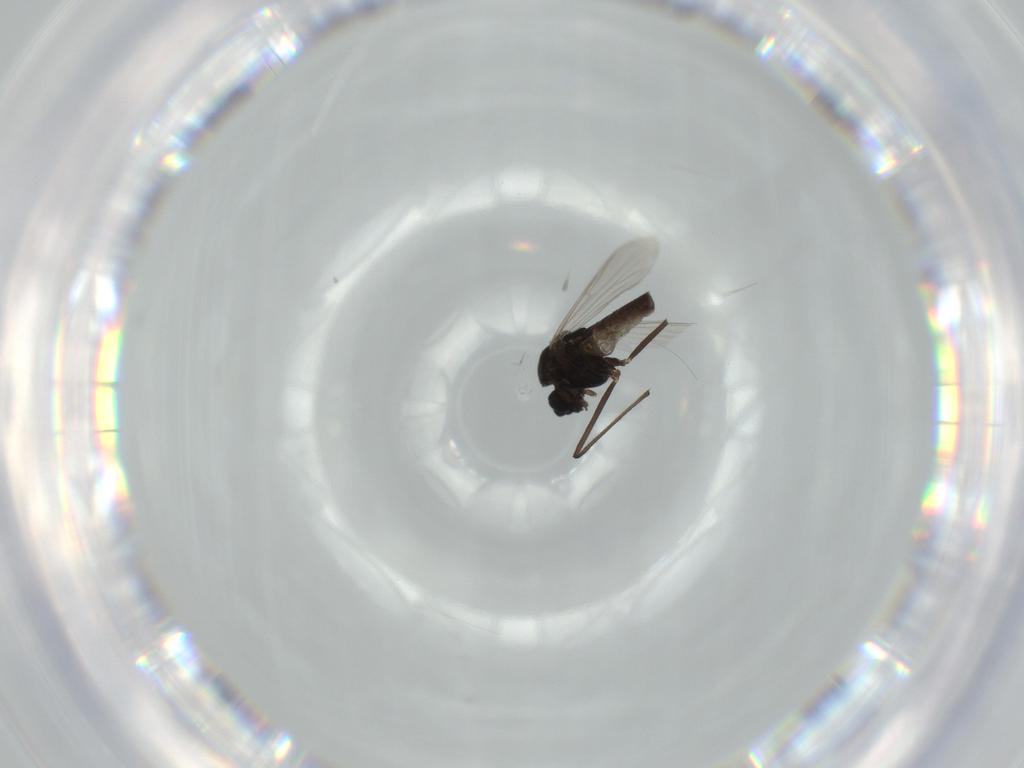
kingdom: Animalia
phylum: Arthropoda
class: Insecta
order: Diptera
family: Chironomidae
